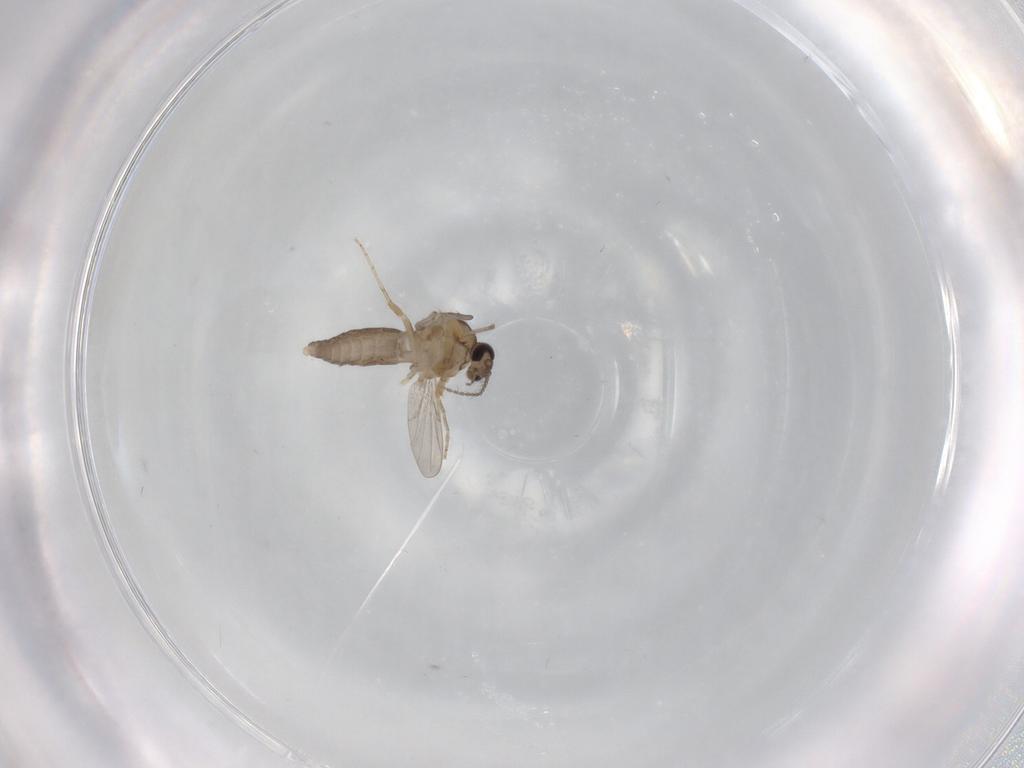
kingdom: Animalia
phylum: Arthropoda
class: Insecta
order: Diptera
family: Ceratopogonidae
